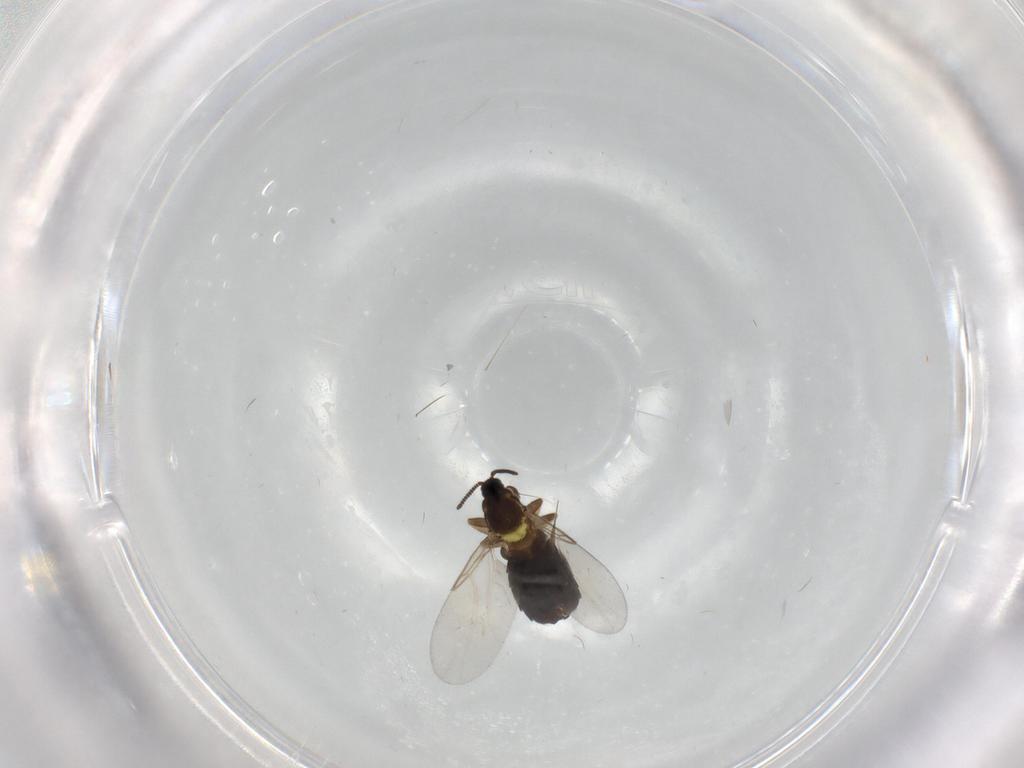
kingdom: Animalia
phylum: Arthropoda
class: Insecta
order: Diptera
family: Scatopsidae
